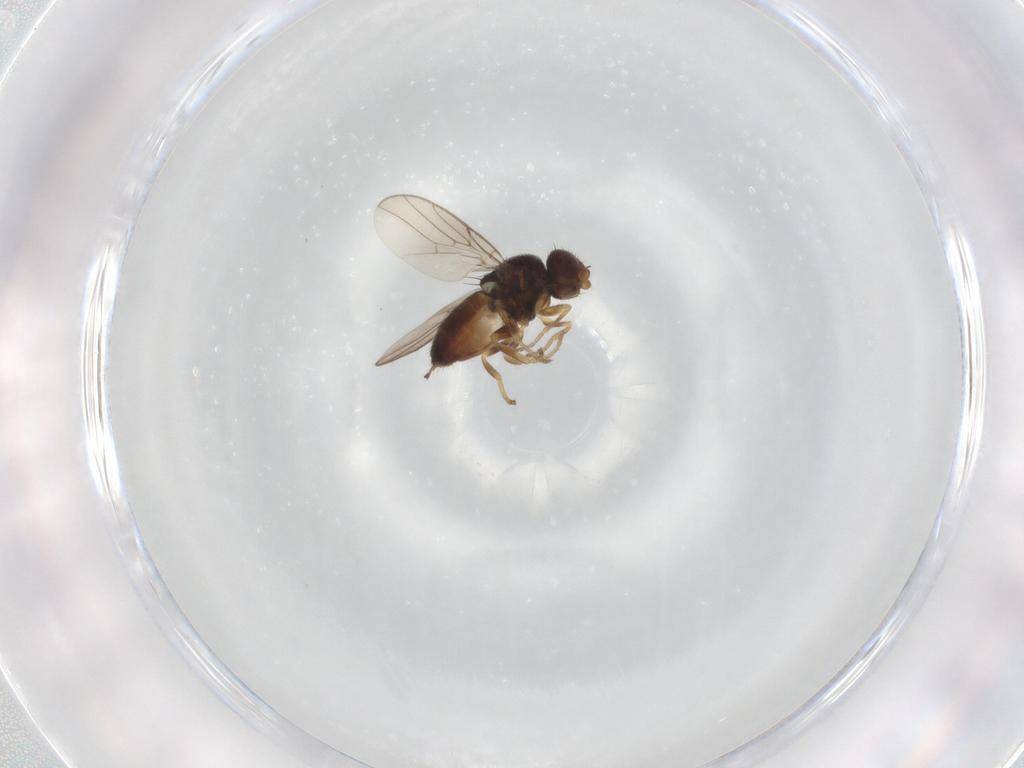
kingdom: Animalia
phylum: Arthropoda
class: Insecta
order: Diptera
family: Chloropidae
